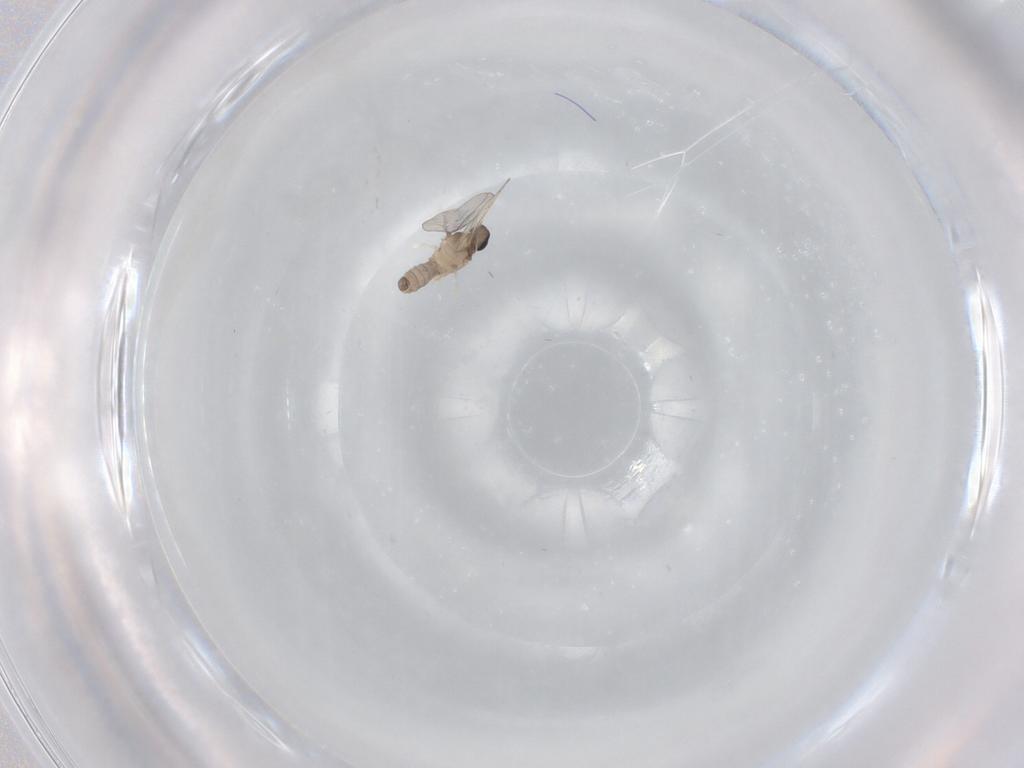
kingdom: Animalia
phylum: Arthropoda
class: Insecta
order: Diptera
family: Cecidomyiidae
